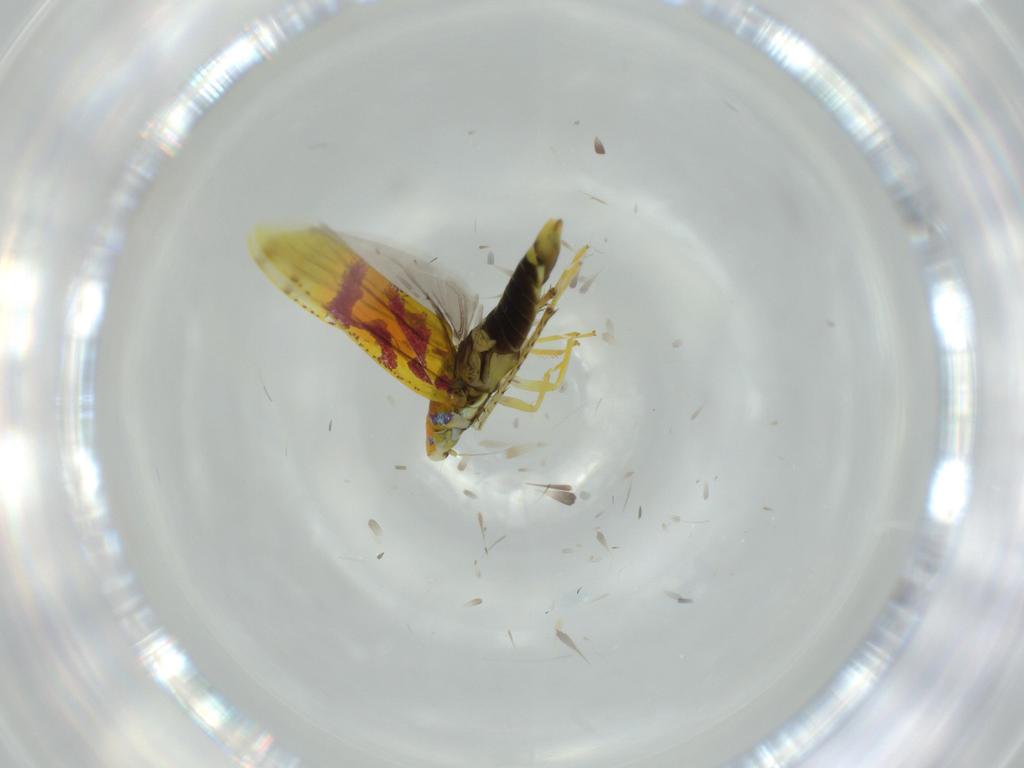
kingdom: Animalia
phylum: Arthropoda
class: Insecta
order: Hemiptera
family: Cicadellidae
